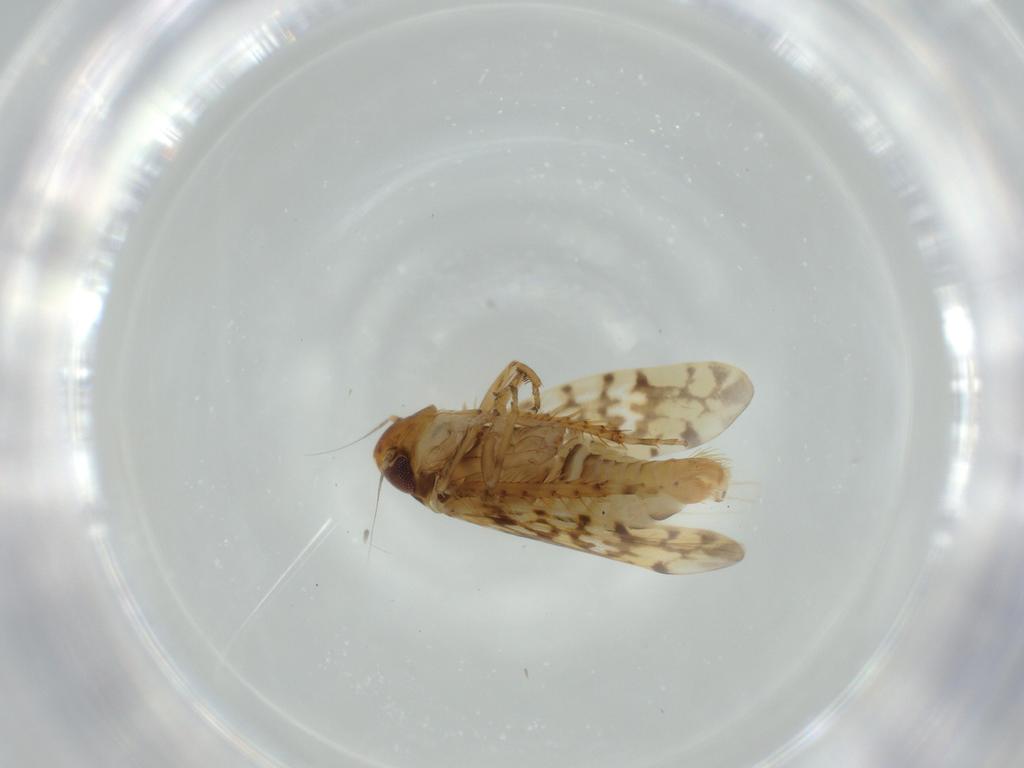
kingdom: Animalia
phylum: Arthropoda
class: Insecta
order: Hemiptera
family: Cicadellidae
